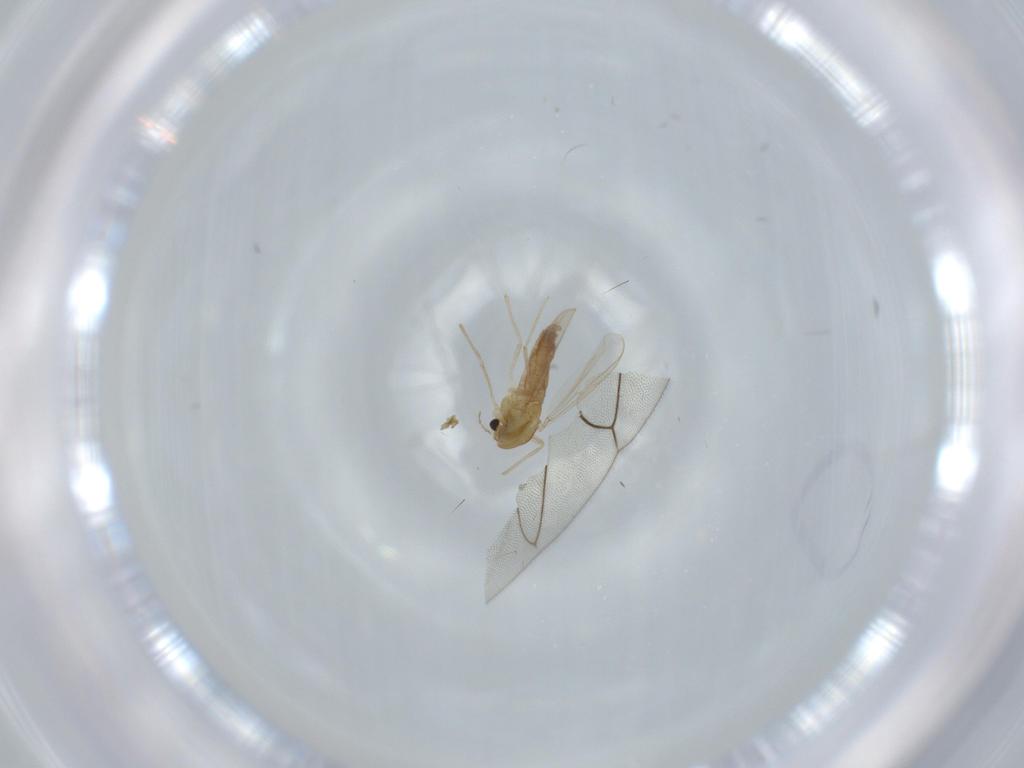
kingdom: Animalia
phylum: Arthropoda
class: Insecta
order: Diptera
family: Chironomidae
